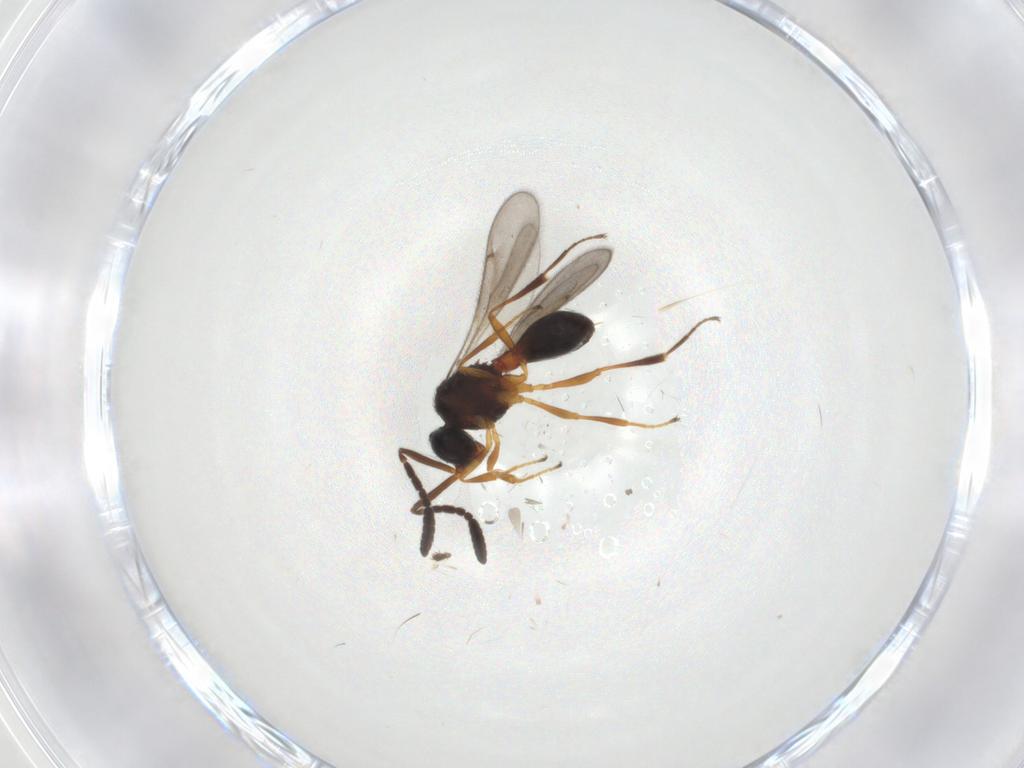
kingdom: Animalia
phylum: Arthropoda
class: Insecta
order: Hymenoptera
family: Scelionidae
